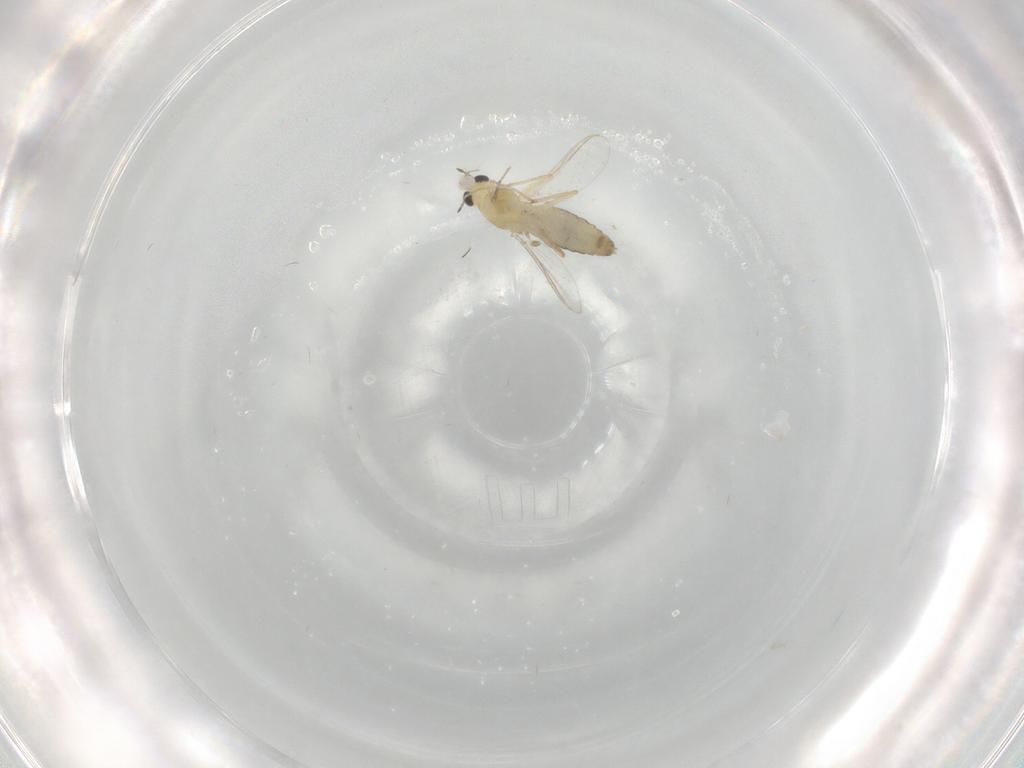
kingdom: Animalia
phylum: Arthropoda
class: Insecta
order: Diptera
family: Chironomidae
